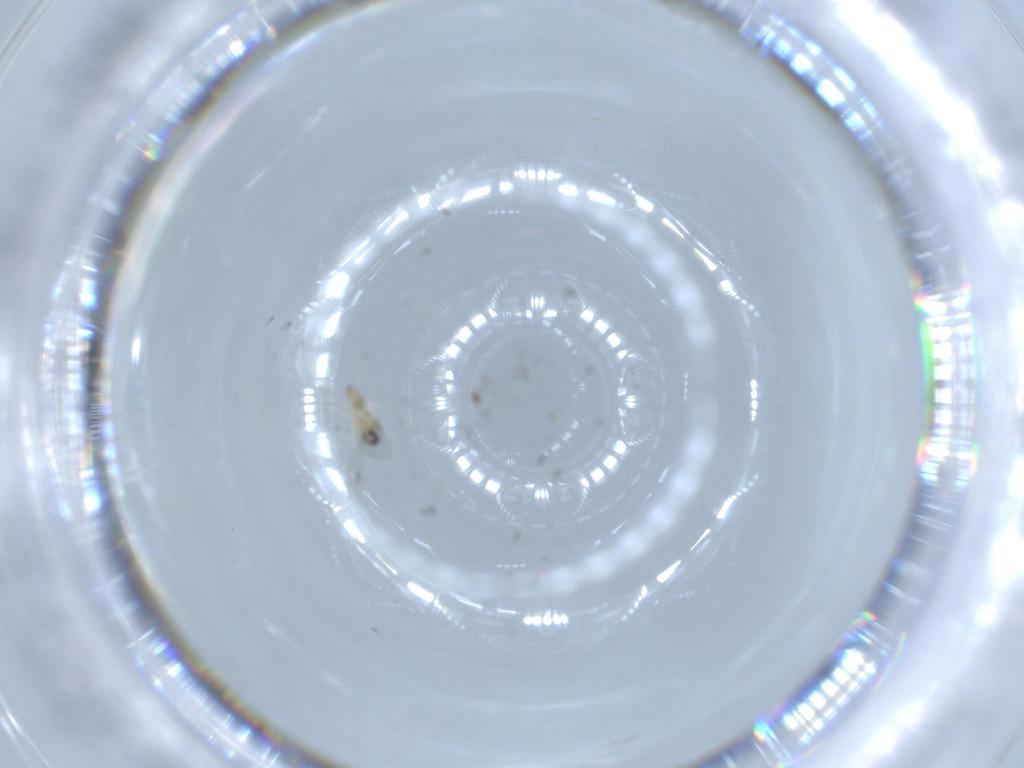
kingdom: Animalia
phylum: Arthropoda
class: Insecta
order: Diptera
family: Cecidomyiidae
